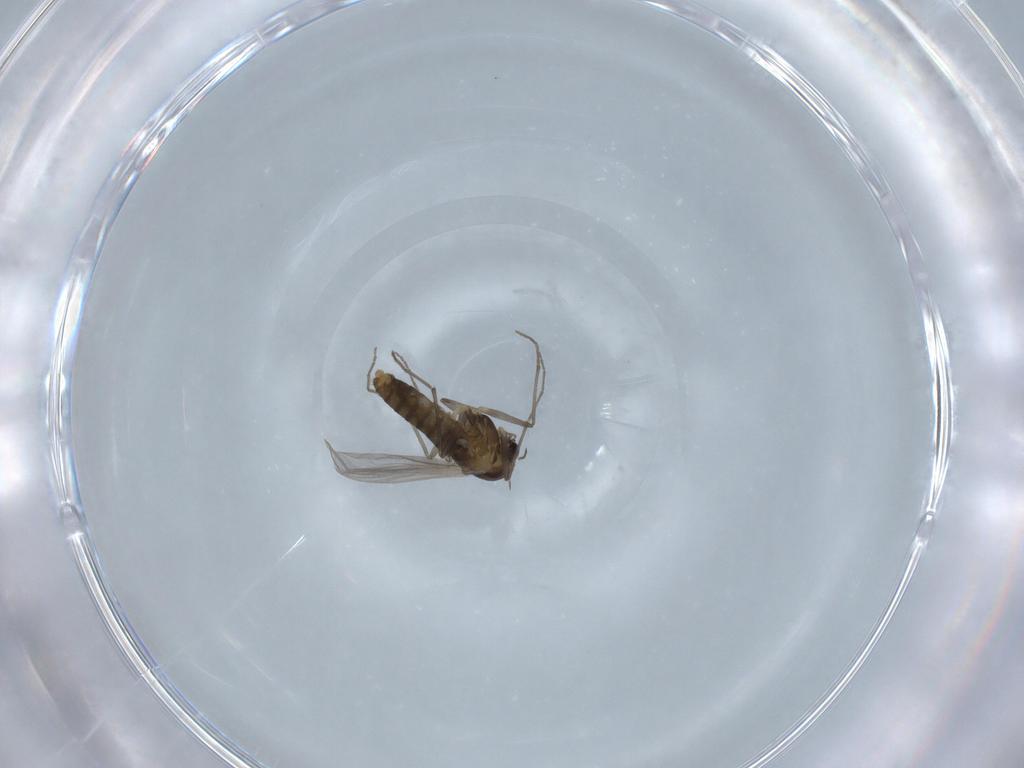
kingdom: Animalia
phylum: Arthropoda
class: Insecta
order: Diptera
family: Chironomidae
